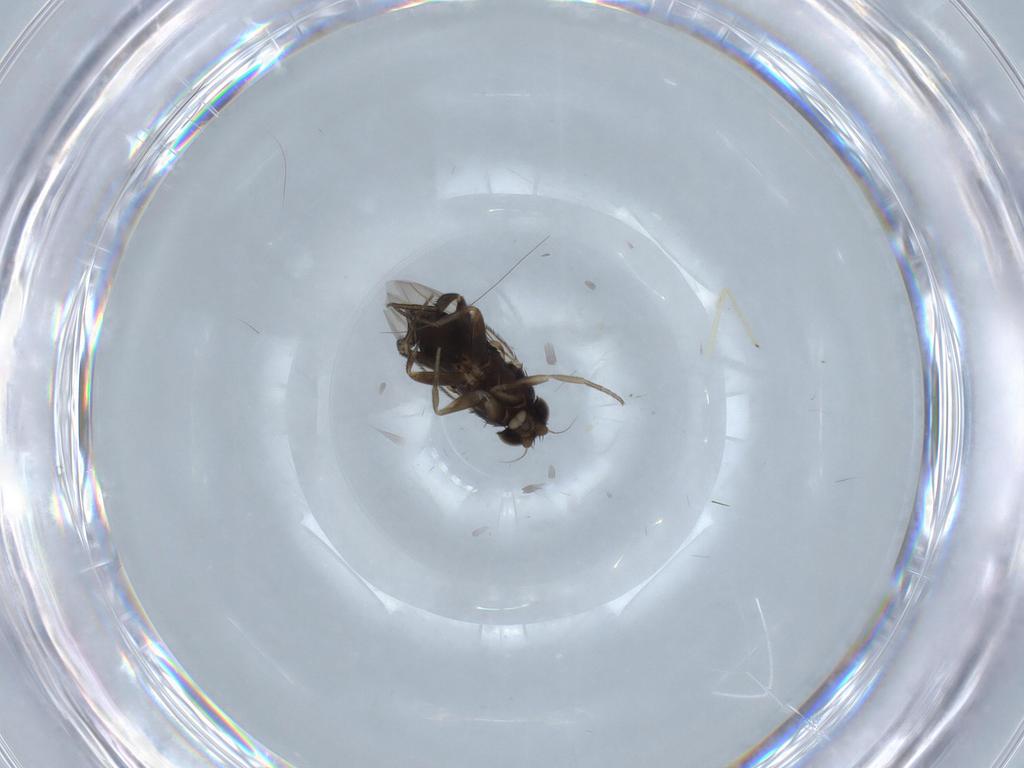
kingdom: Animalia
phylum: Arthropoda
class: Insecta
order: Diptera
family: Phoridae
